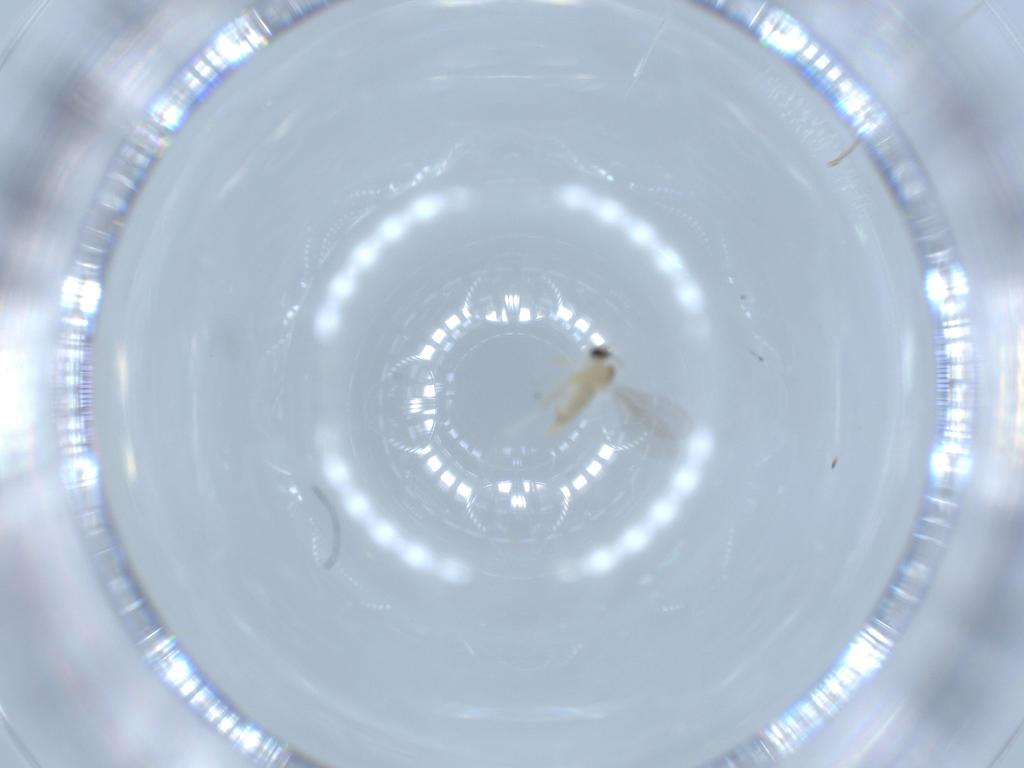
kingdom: Animalia
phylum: Arthropoda
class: Insecta
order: Diptera
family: Cecidomyiidae
